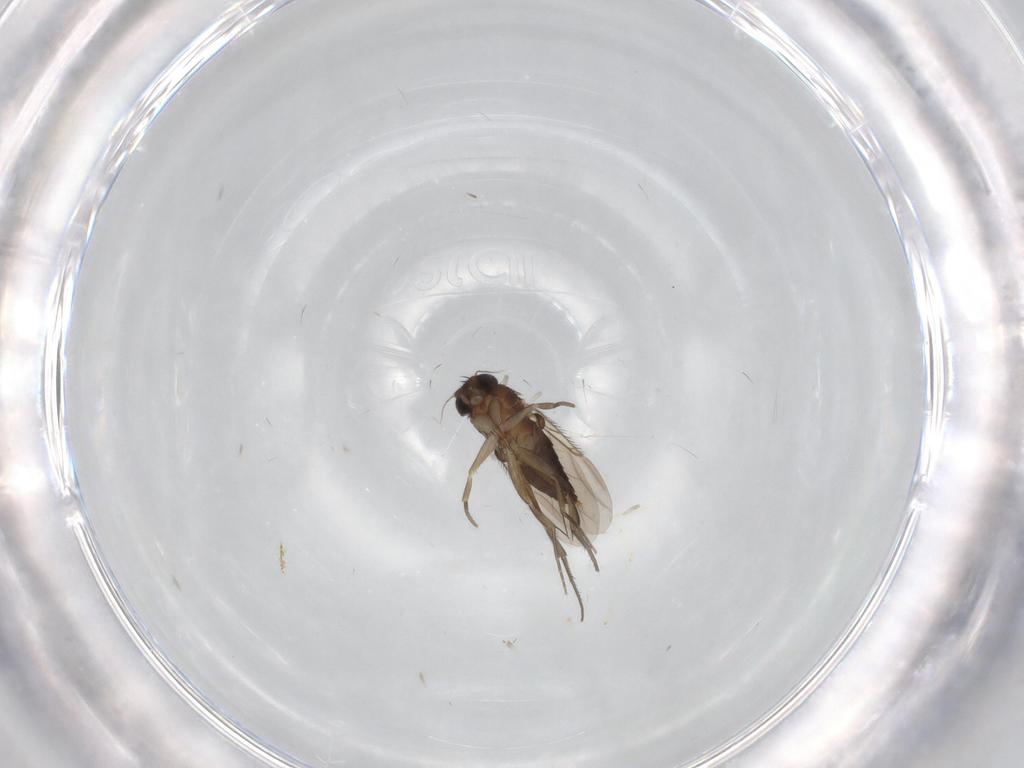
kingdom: Animalia
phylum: Arthropoda
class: Insecta
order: Diptera
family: Phoridae
